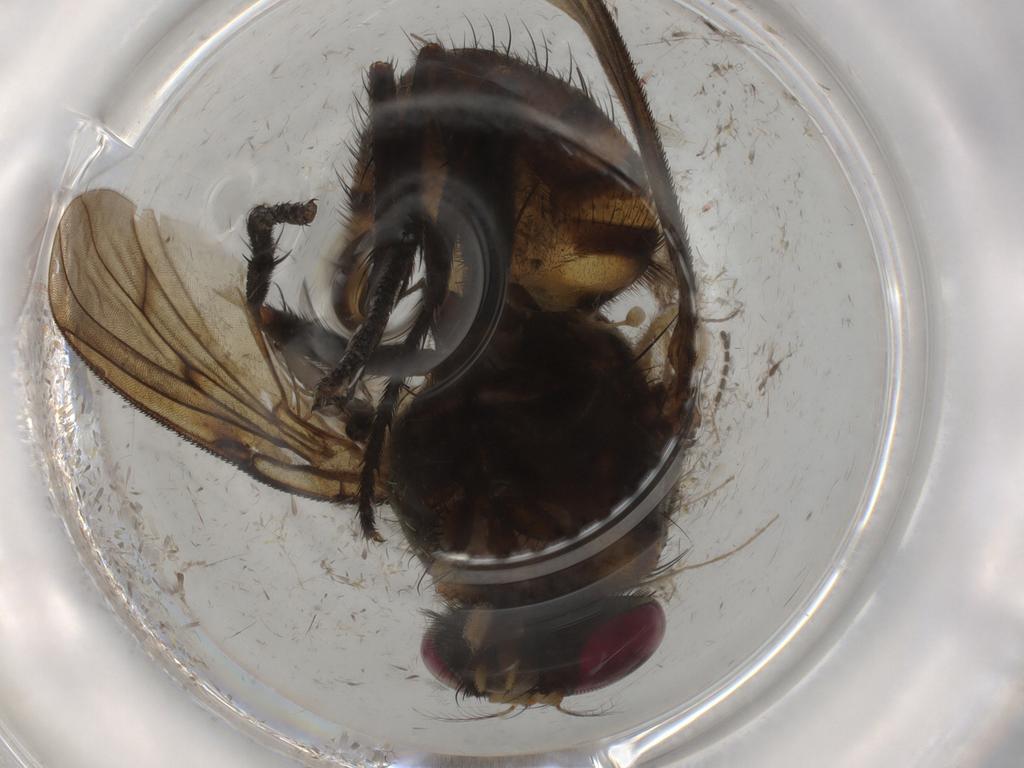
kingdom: Animalia
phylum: Arthropoda
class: Insecta
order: Diptera
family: Muscidae
